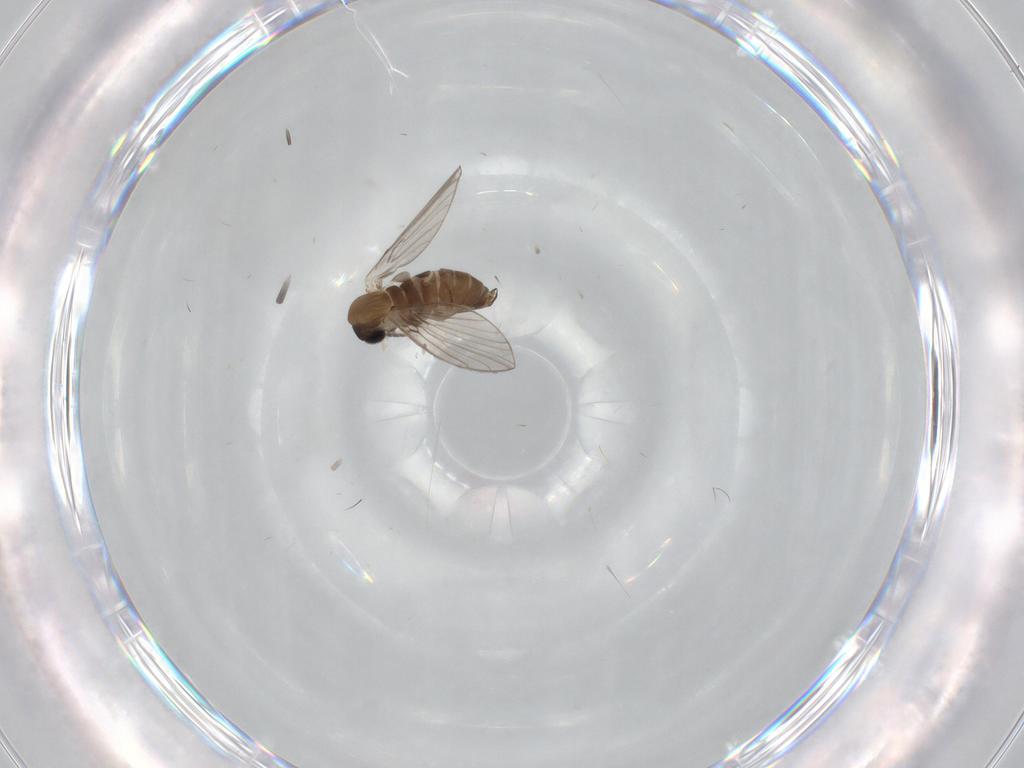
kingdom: Animalia
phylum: Arthropoda
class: Insecta
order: Diptera
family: Psychodidae
